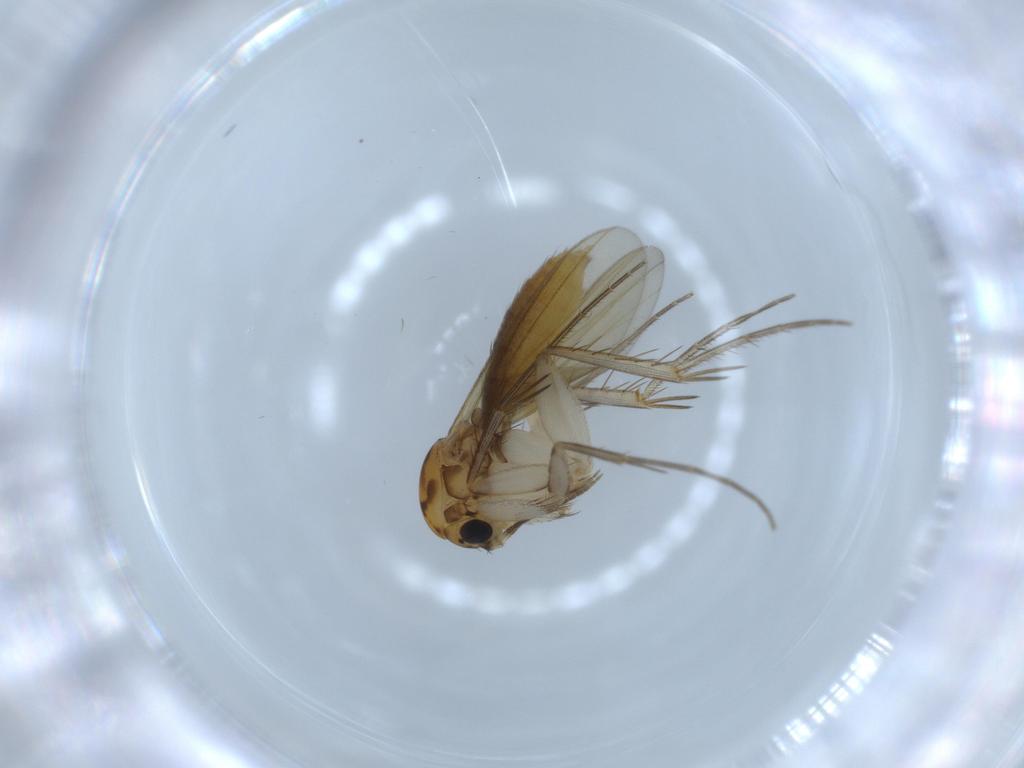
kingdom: Animalia
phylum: Arthropoda
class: Insecta
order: Diptera
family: Mycetophilidae
